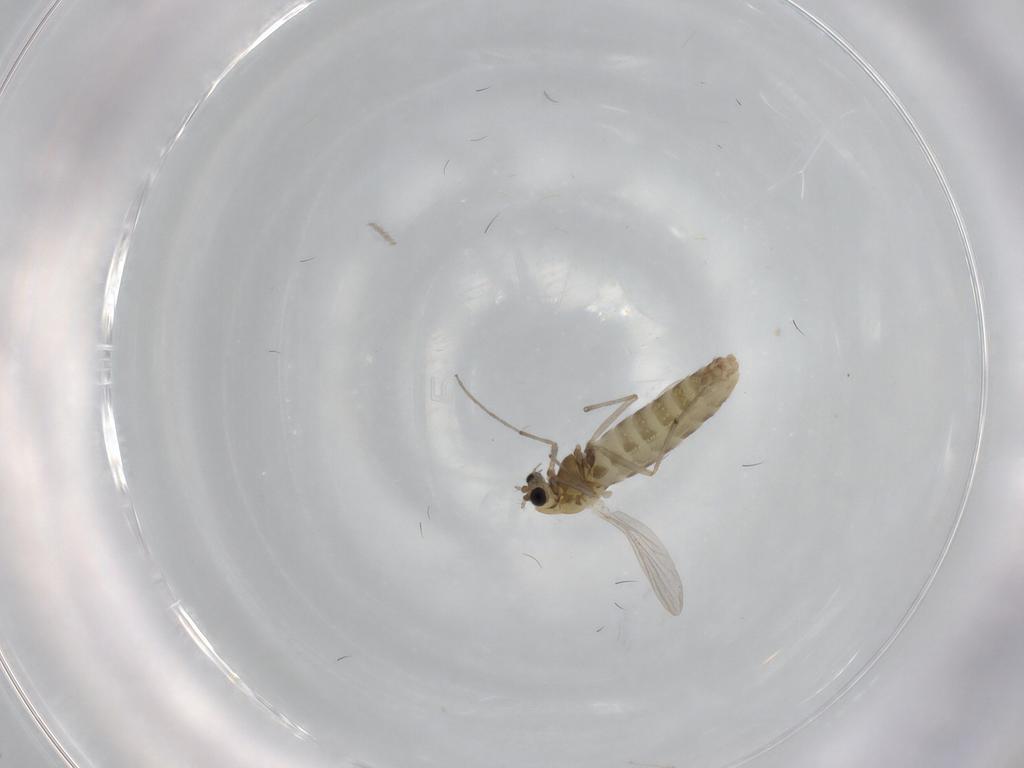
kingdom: Animalia
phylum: Arthropoda
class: Insecta
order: Diptera
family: Chironomidae
